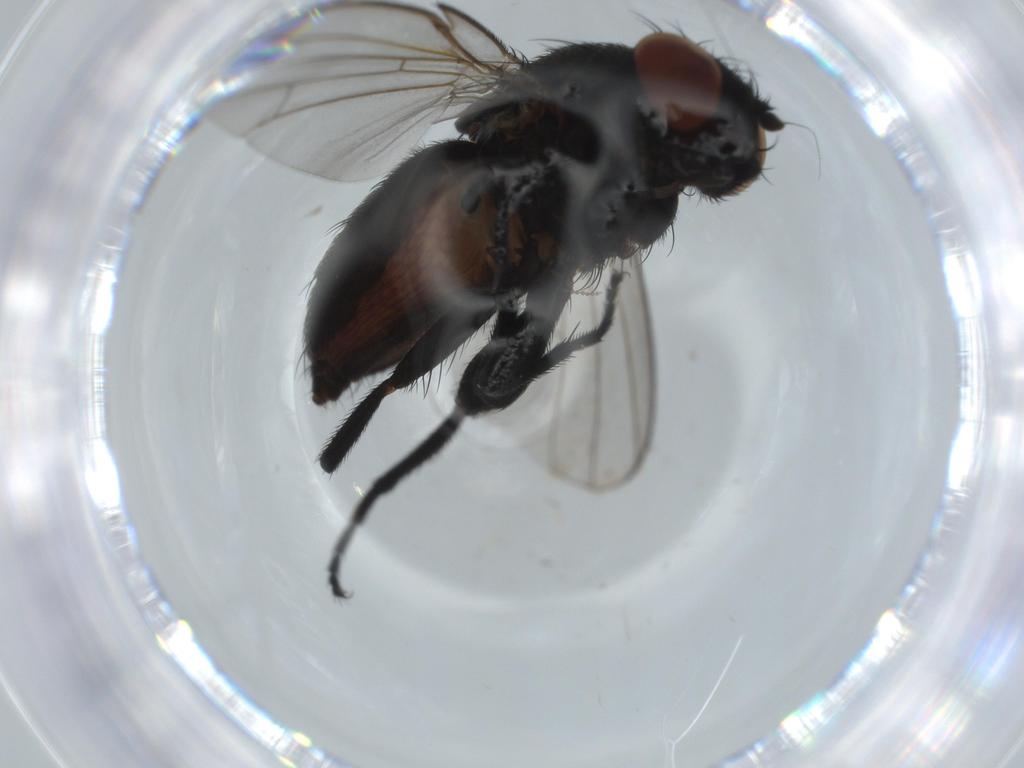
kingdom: Animalia
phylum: Arthropoda
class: Insecta
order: Diptera
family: Milichiidae
